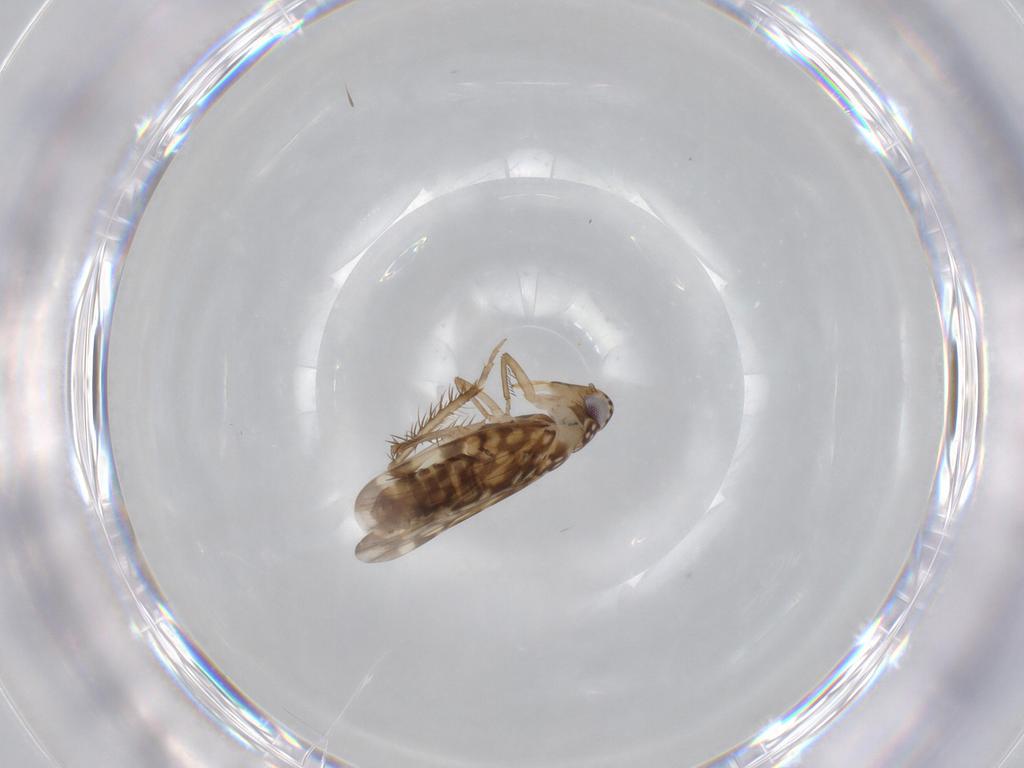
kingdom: Animalia
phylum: Arthropoda
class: Insecta
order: Hemiptera
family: Cicadellidae
